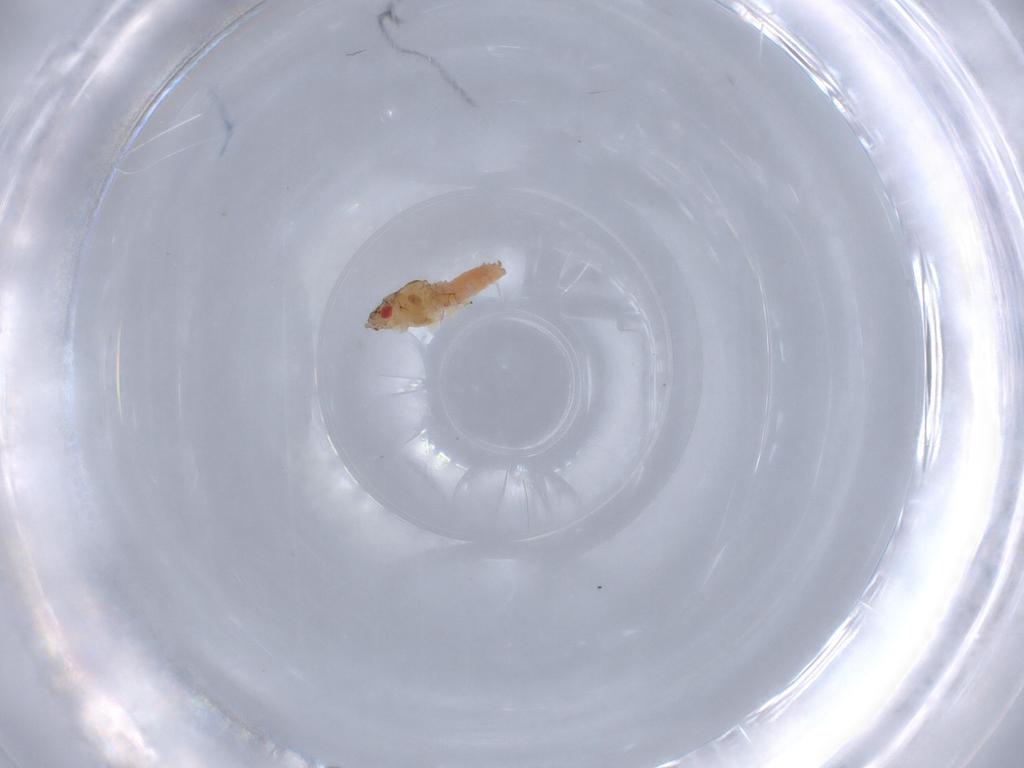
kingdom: Animalia
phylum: Arthropoda
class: Insecta
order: Hemiptera
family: Aphididae
